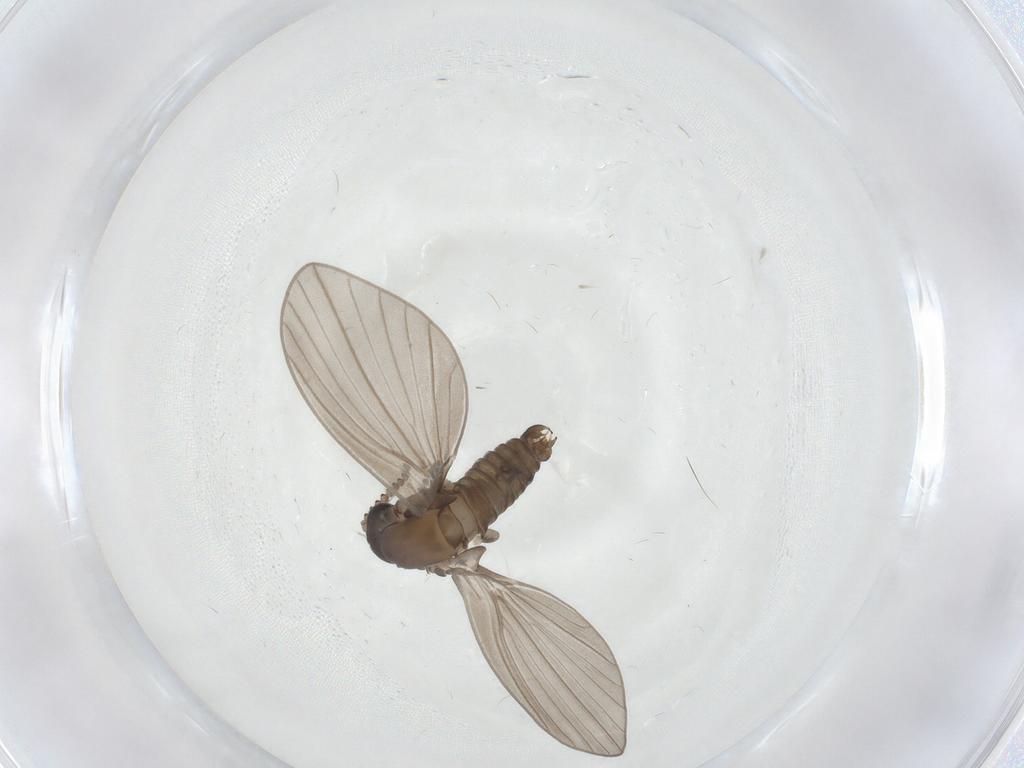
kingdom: Animalia
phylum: Arthropoda
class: Insecta
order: Diptera
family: Psychodidae
